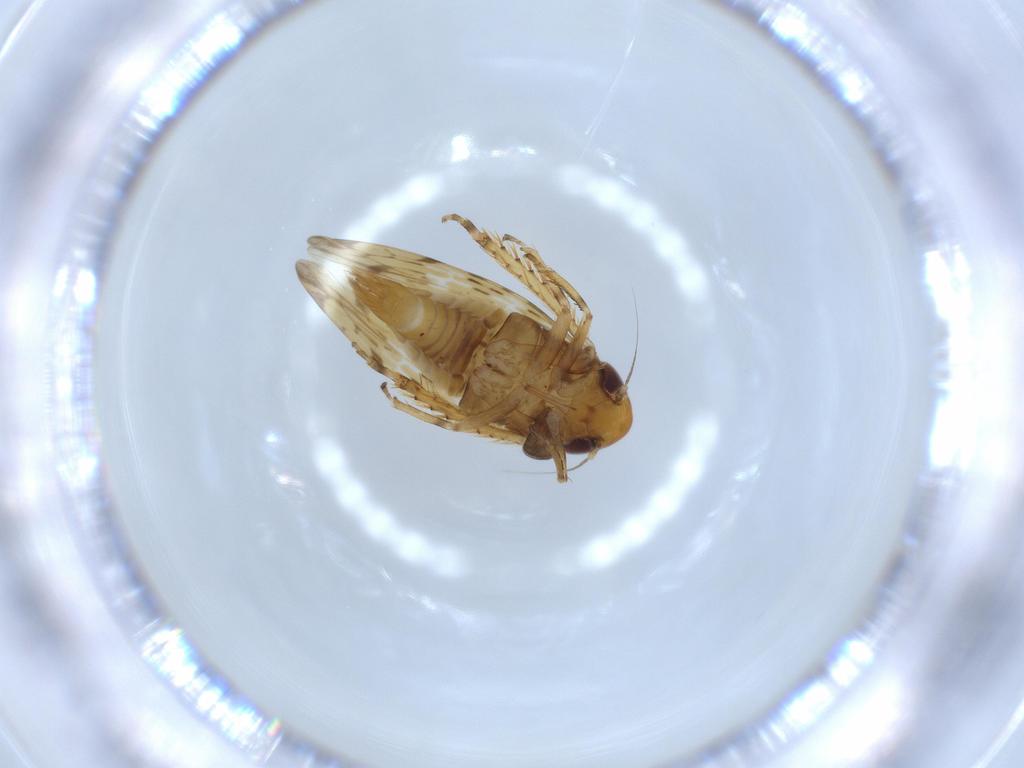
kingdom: Animalia
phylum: Arthropoda
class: Insecta
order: Hemiptera
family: Cicadellidae
